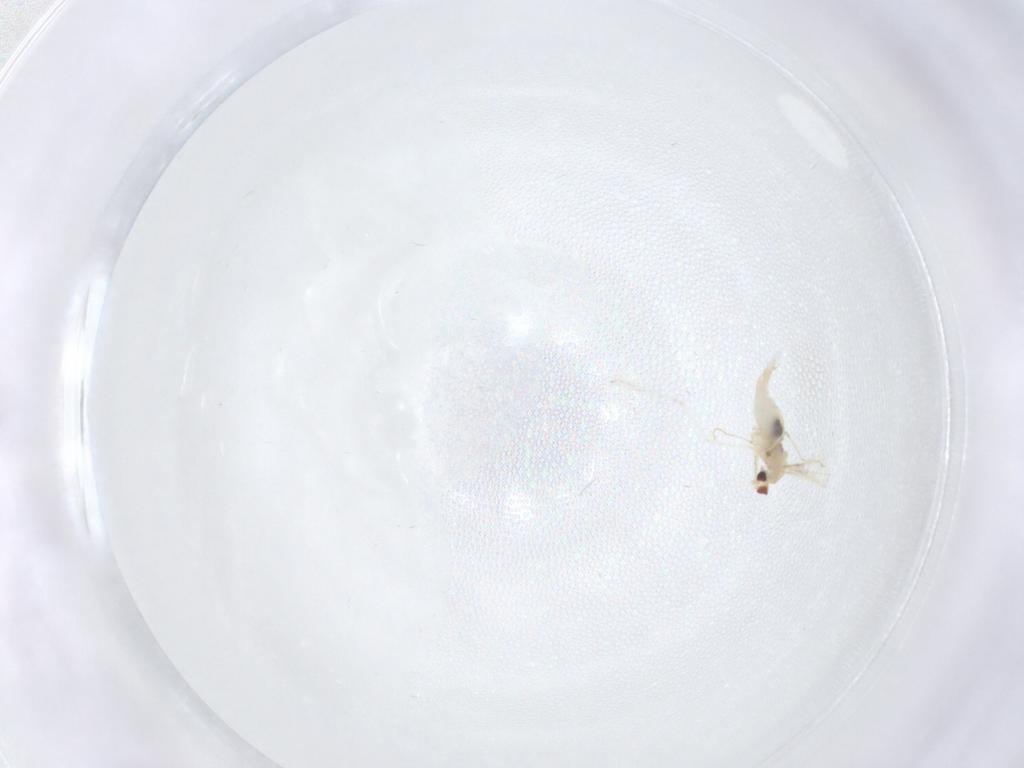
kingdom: Animalia
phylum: Arthropoda
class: Insecta
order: Diptera
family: Cecidomyiidae
